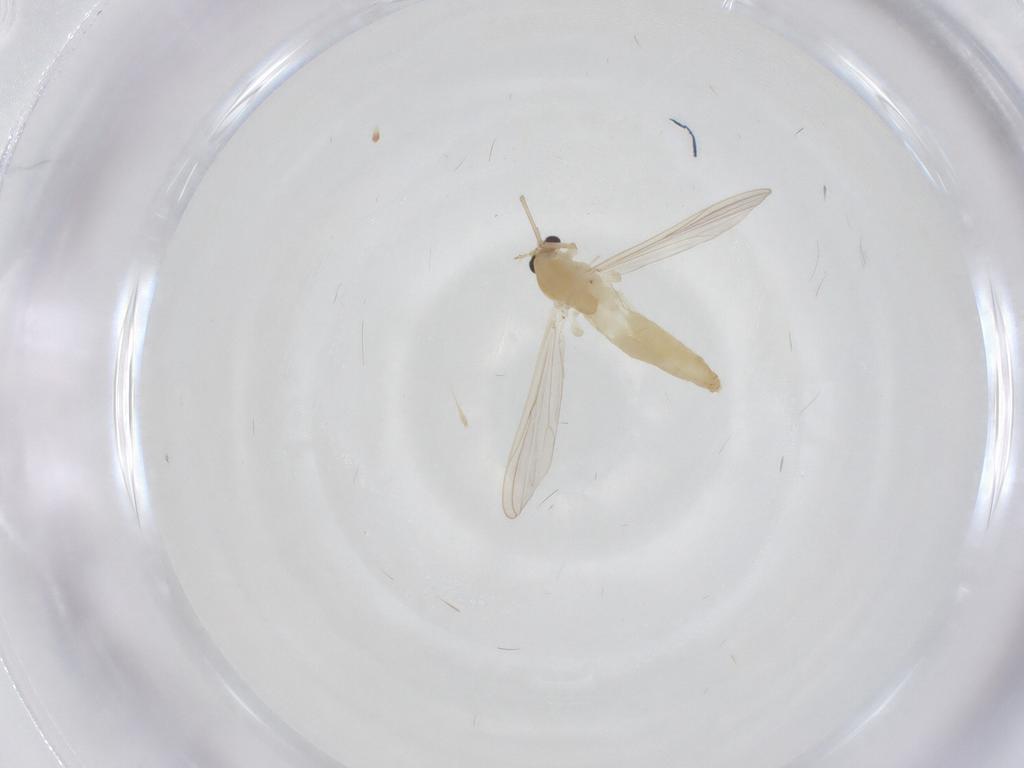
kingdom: Animalia
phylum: Arthropoda
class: Insecta
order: Diptera
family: Chironomidae
